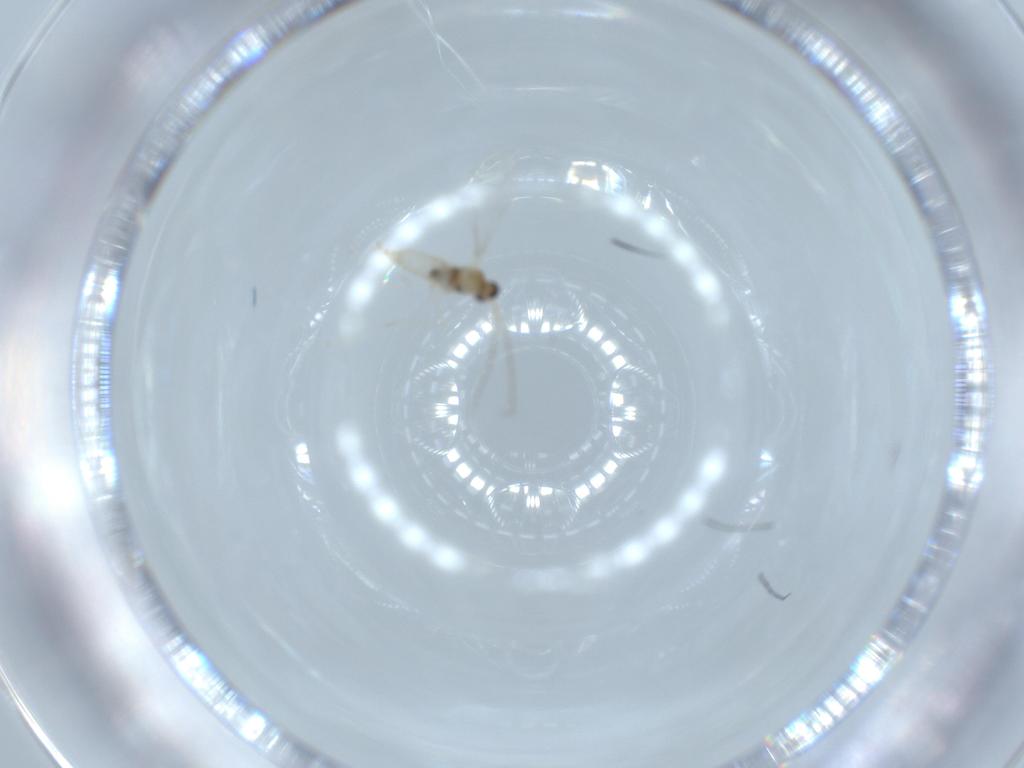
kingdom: Animalia
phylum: Arthropoda
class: Insecta
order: Diptera
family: Cecidomyiidae
